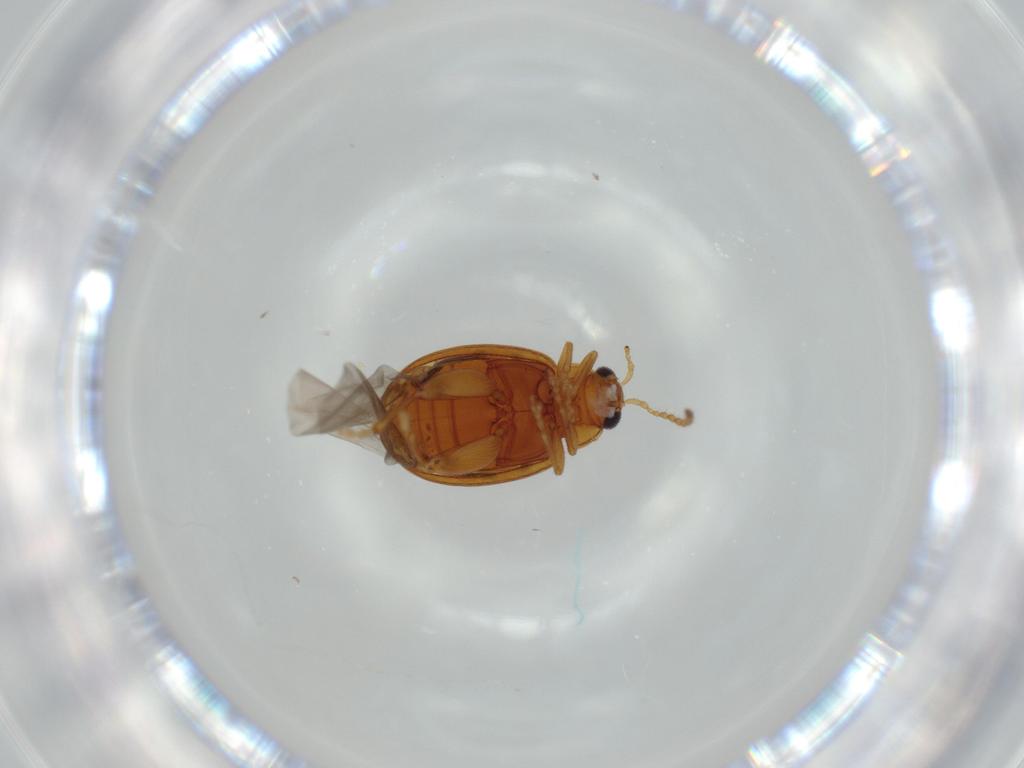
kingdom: Animalia
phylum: Arthropoda
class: Insecta
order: Coleoptera
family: Chrysomelidae
